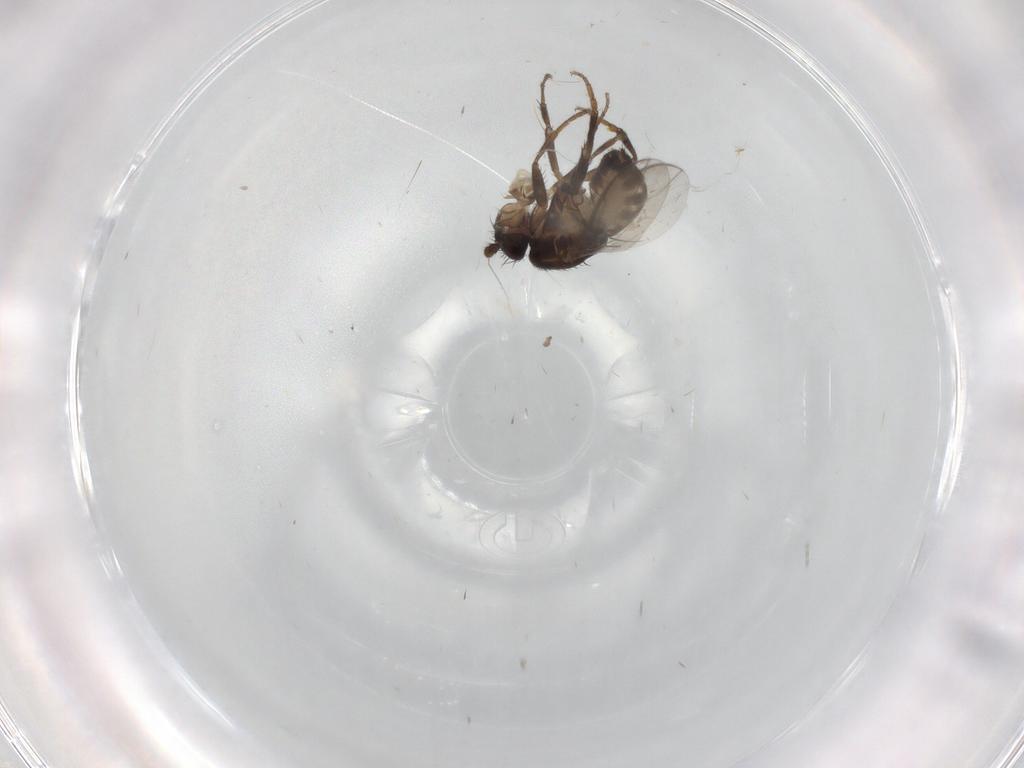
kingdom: Animalia
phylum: Arthropoda
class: Insecta
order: Diptera
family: Sphaeroceridae
